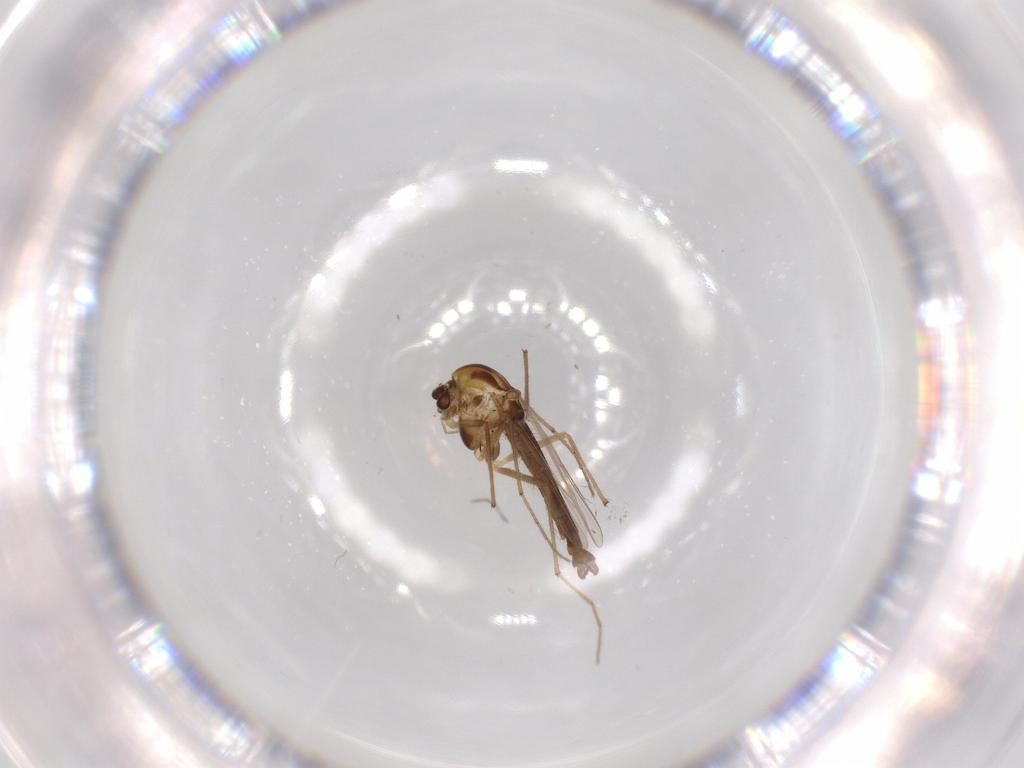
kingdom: Animalia
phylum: Arthropoda
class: Insecta
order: Diptera
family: Chironomidae
